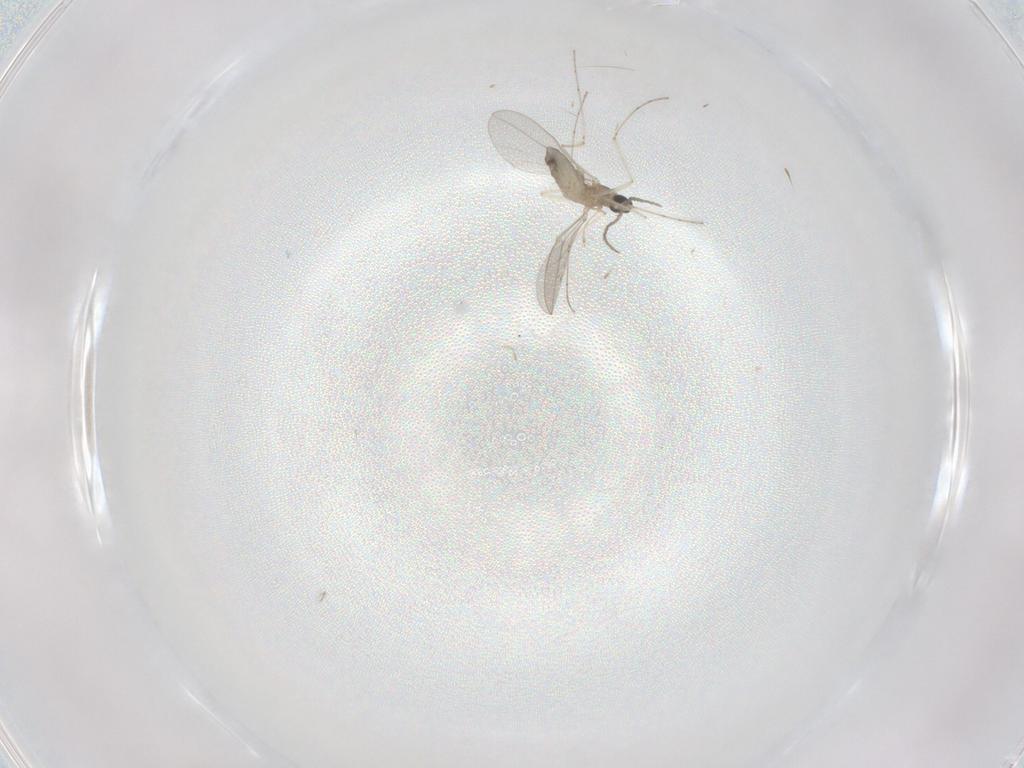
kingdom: Animalia
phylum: Arthropoda
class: Insecta
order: Diptera
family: Cecidomyiidae
